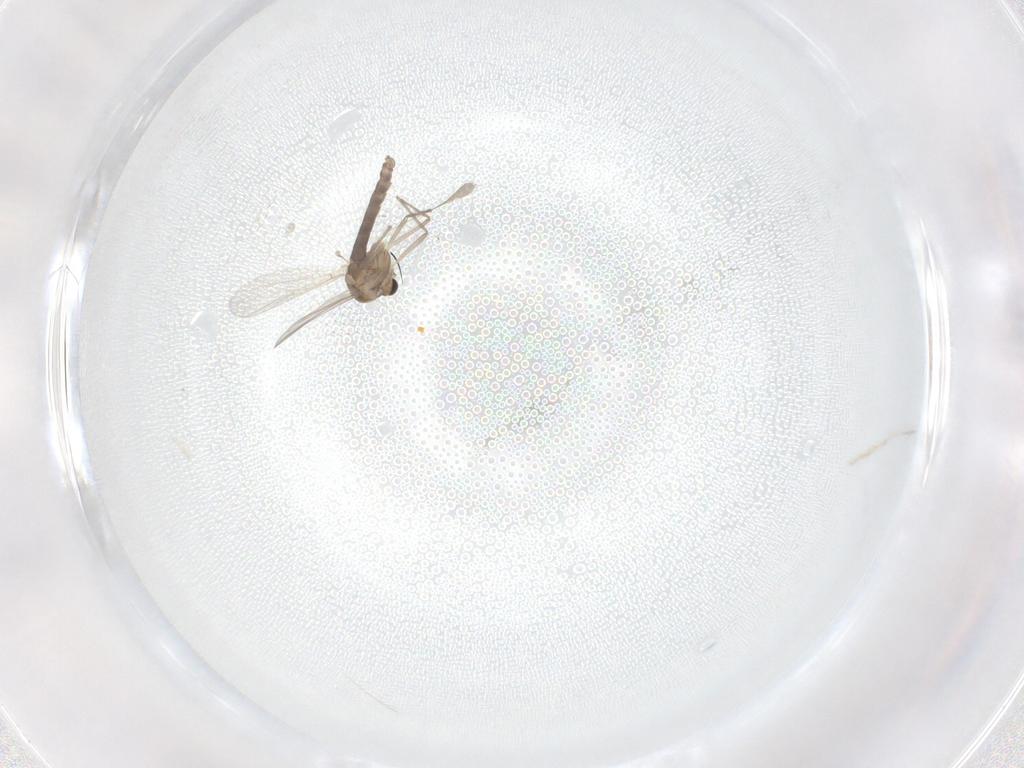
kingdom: Animalia
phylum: Arthropoda
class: Insecta
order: Diptera
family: Chironomidae
